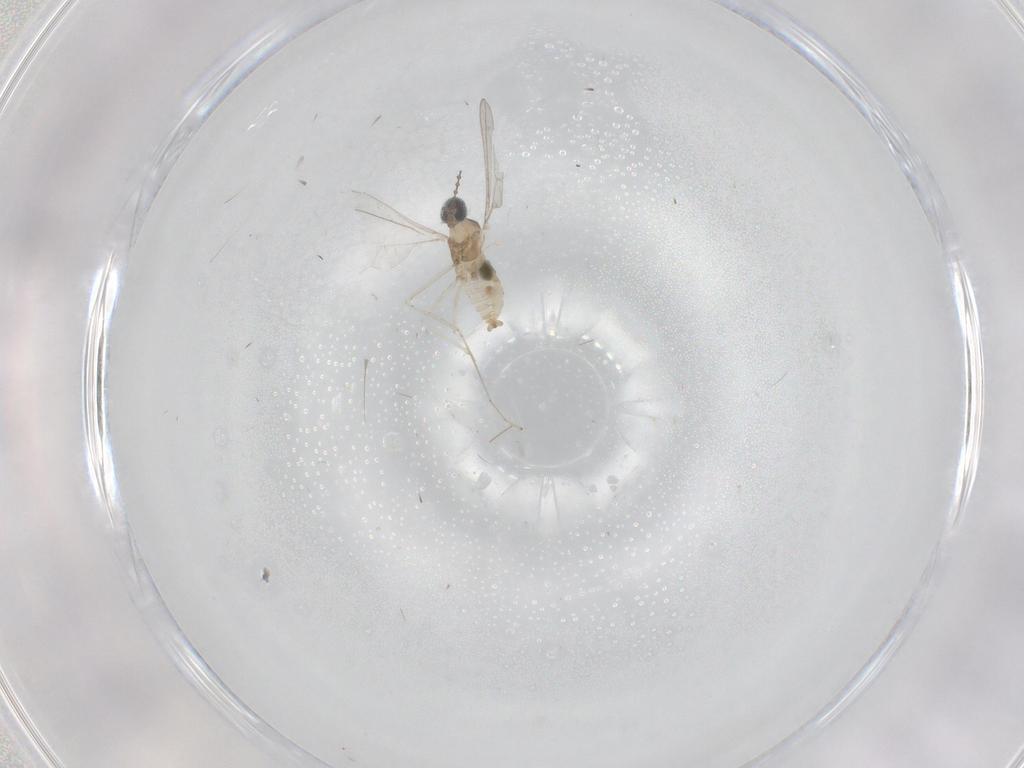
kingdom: Animalia
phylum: Arthropoda
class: Insecta
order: Diptera
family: Cecidomyiidae
